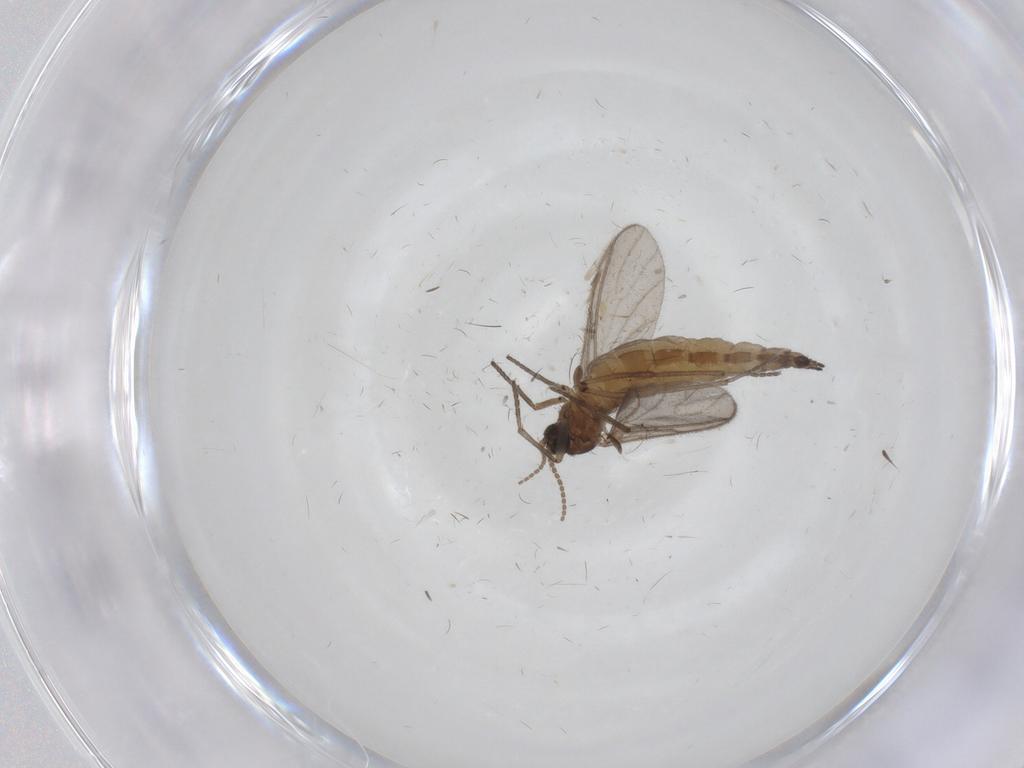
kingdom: Animalia
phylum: Arthropoda
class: Insecta
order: Diptera
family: Sciaridae
